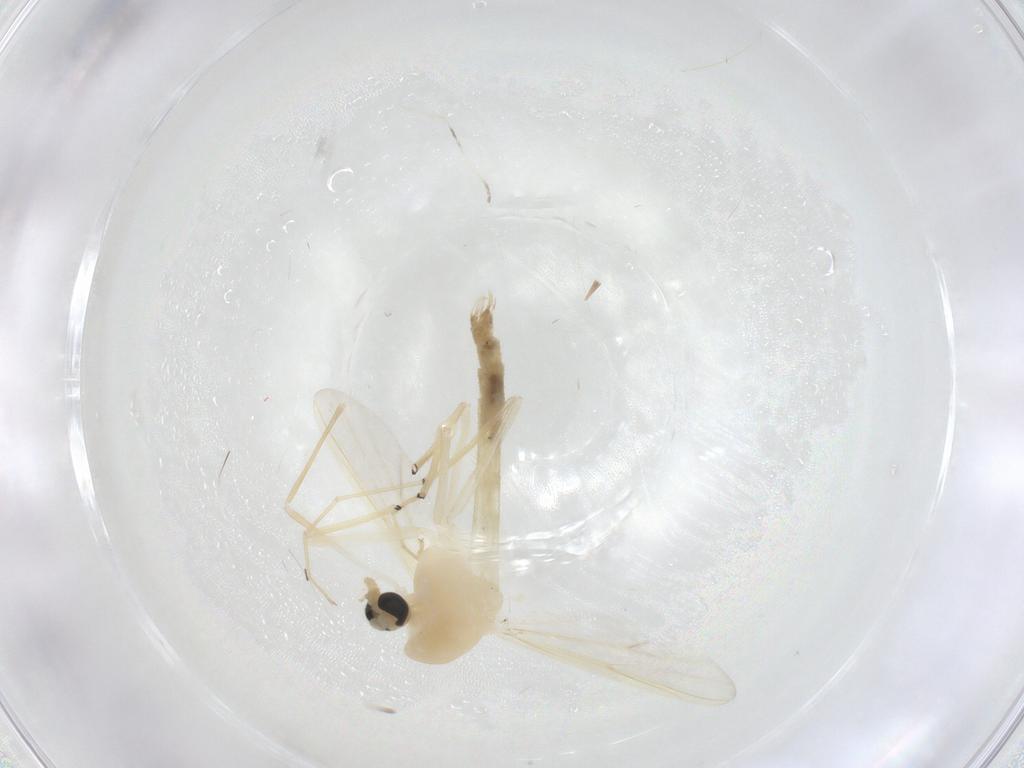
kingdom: Animalia
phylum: Arthropoda
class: Insecta
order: Diptera
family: Chironomidae
